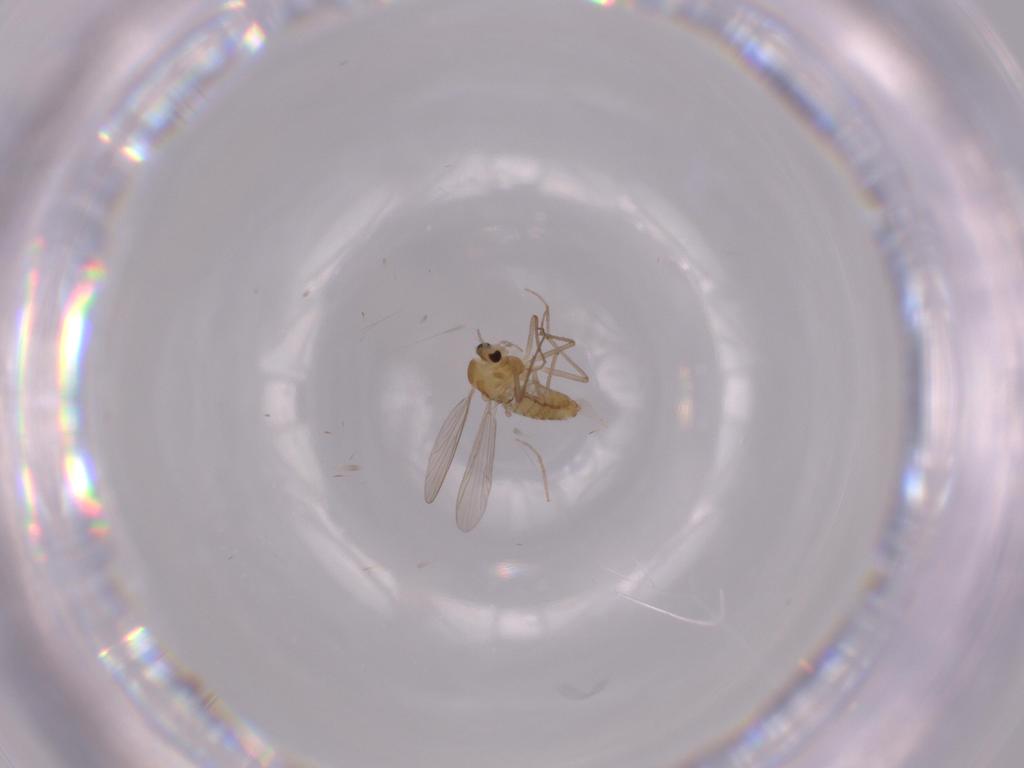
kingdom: Animalia
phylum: Arthropoda
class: Insecta
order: Diptera
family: Chironomidae
